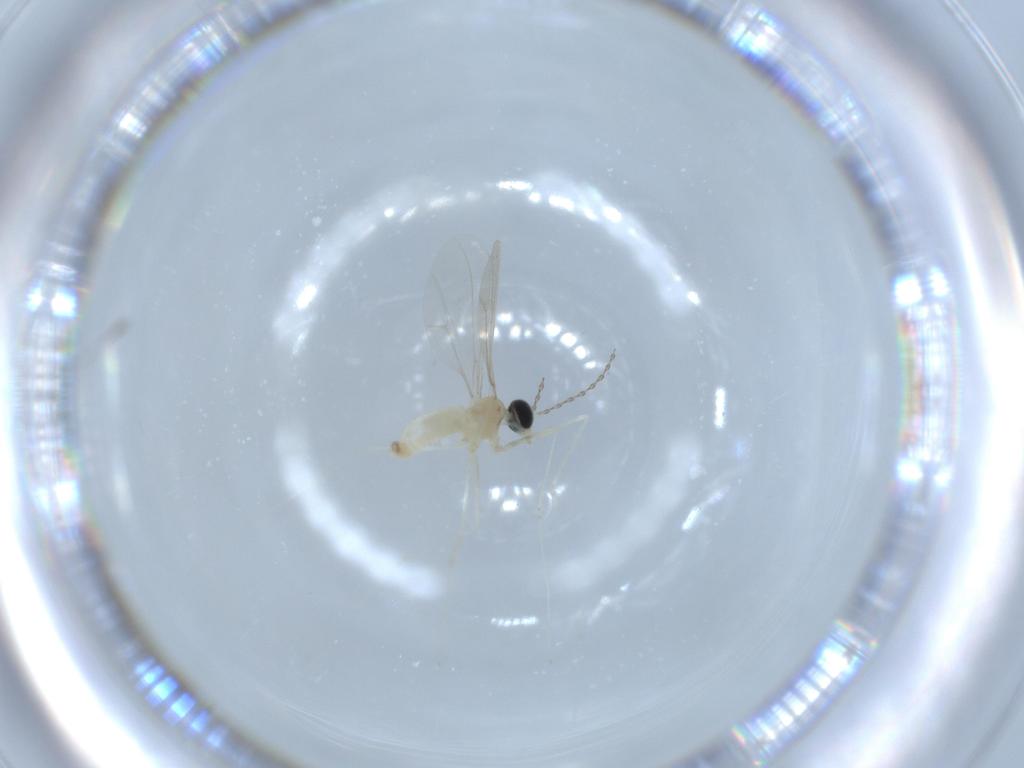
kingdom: Animalia
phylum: Arthropoda
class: Insecta
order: Diptera
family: Cecidomyiidae
